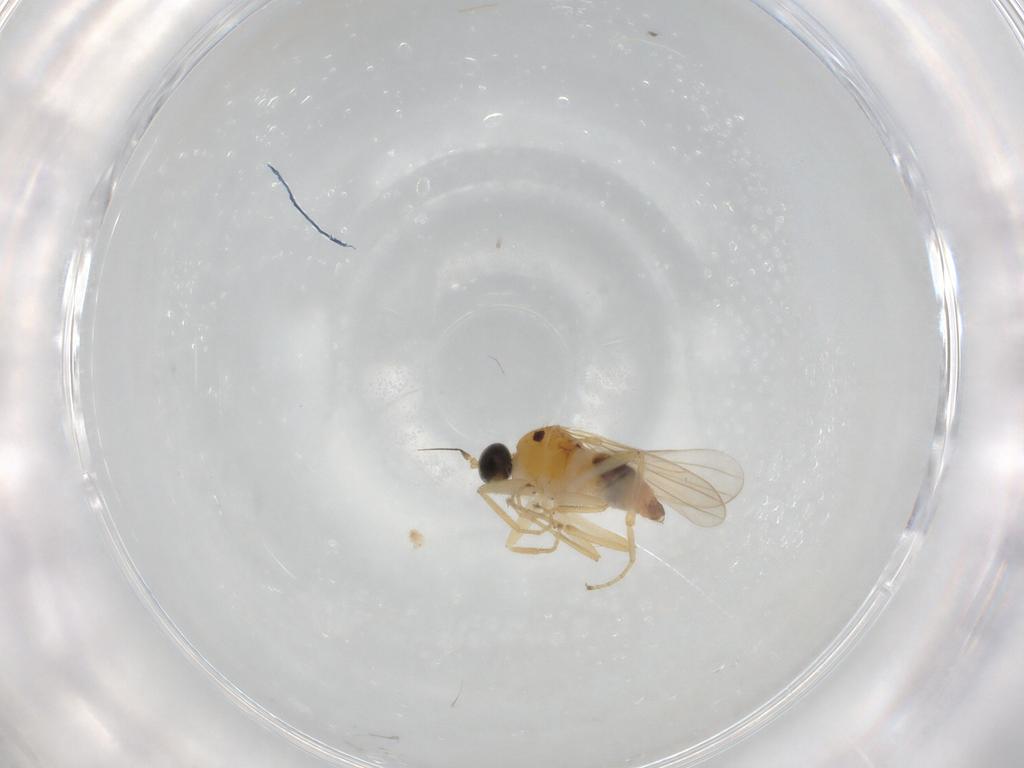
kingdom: Animalia
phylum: Arthropoda
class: Insecta
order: Diptera
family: Hybotidae
